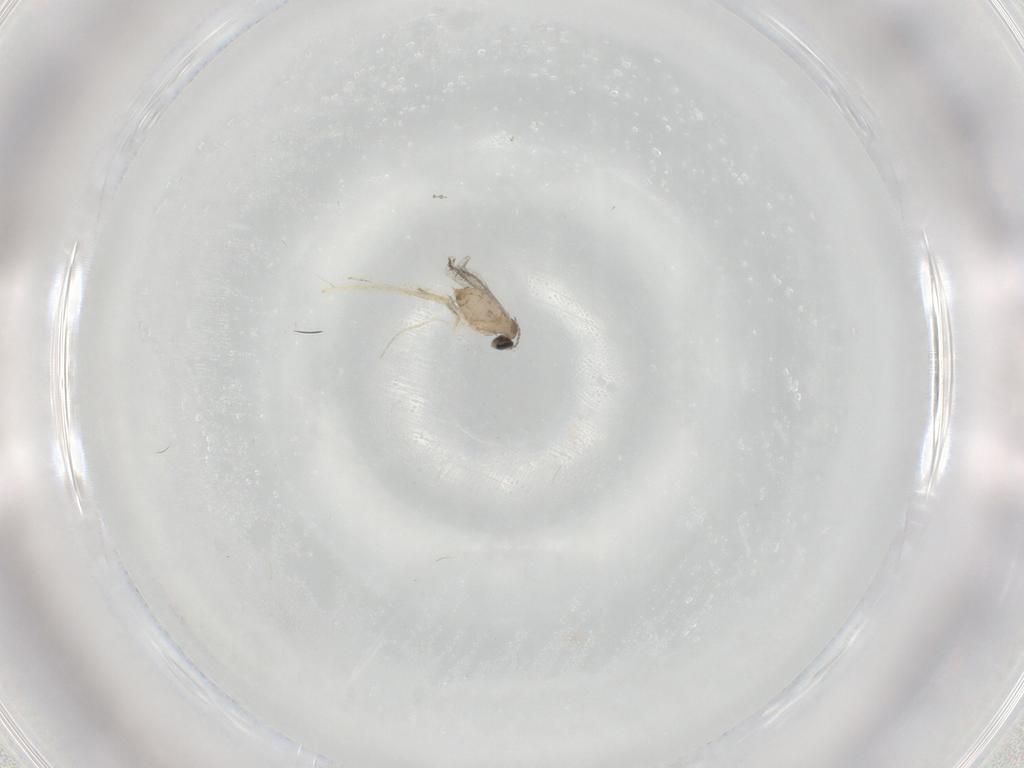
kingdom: Animalia
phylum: Arthropoda
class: Insecta
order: Diptera
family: Cecidomyiidae
